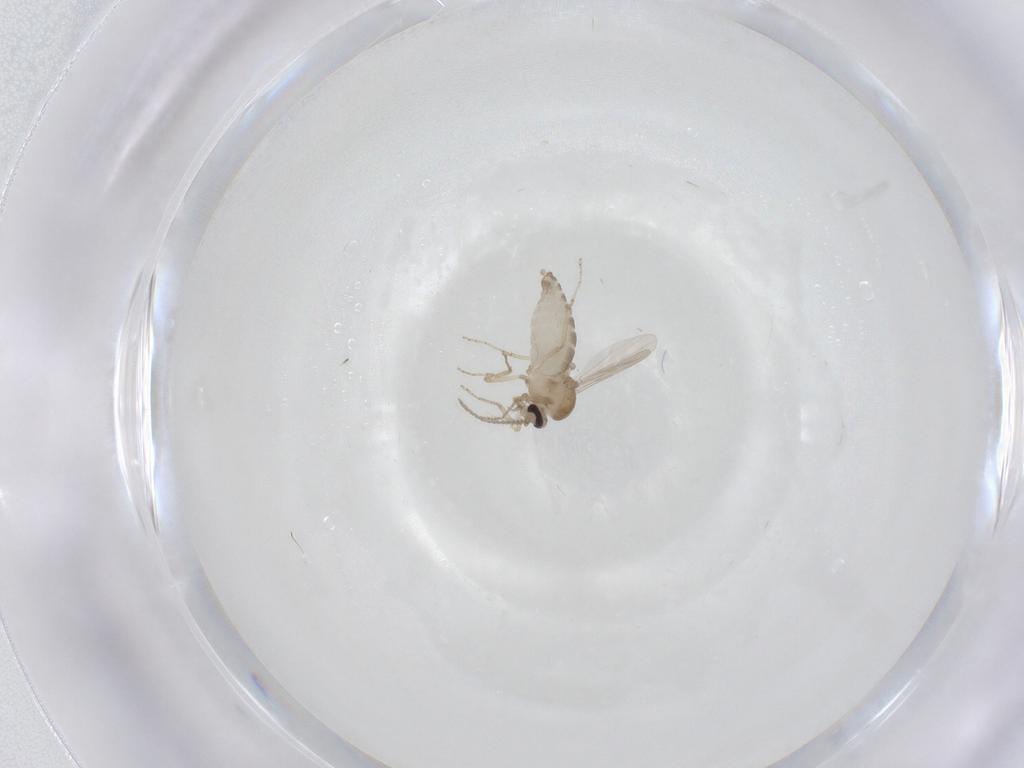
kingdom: Animalia
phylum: Arthropoda
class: Insecta
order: Diptera
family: Ceratopogonidae
